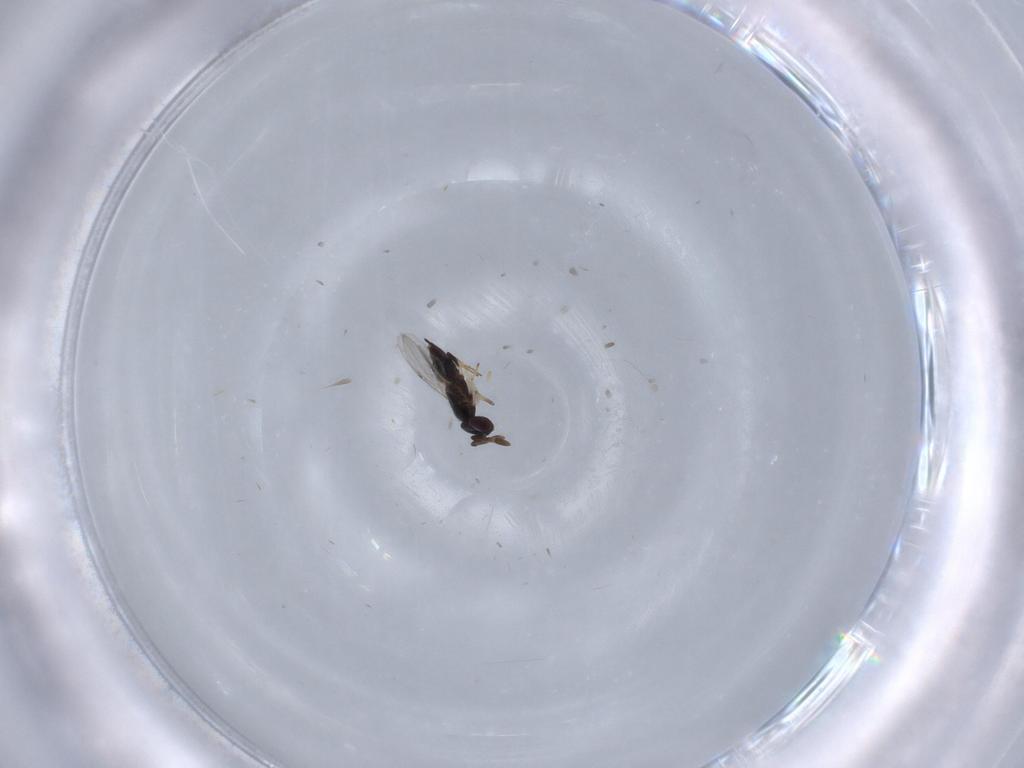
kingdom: Animalia
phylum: Arthropoda
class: Insecta
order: Hymenoptera
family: Encyrtidae
